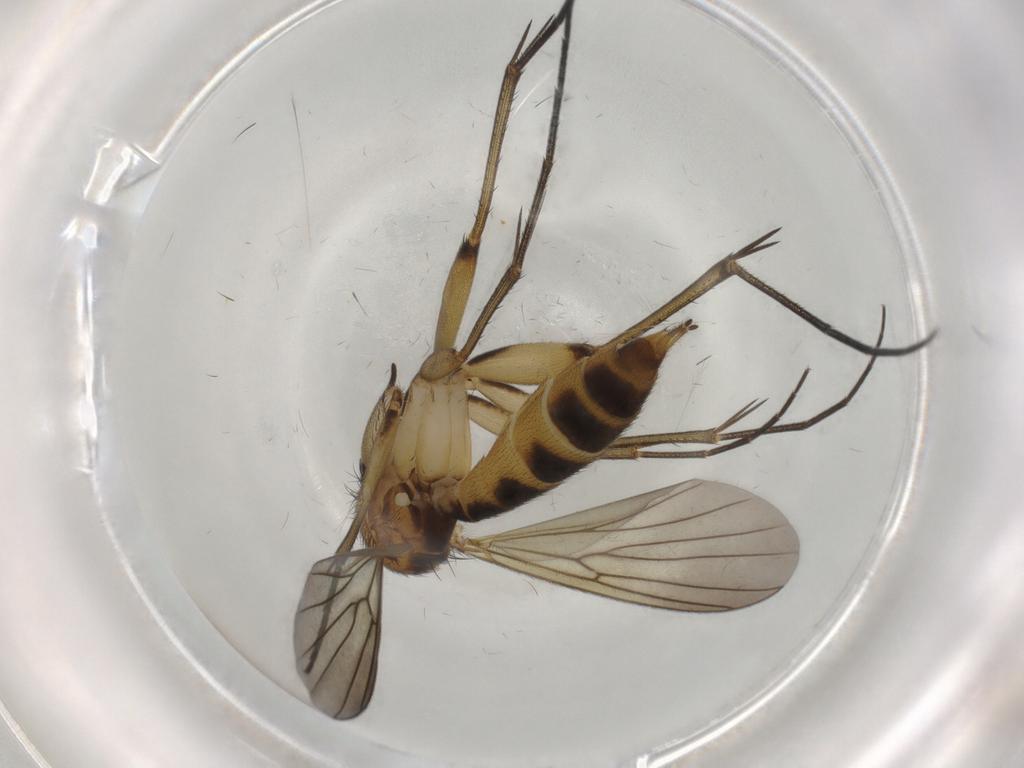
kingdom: Animalia
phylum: Arthropoda
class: Insecta
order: Diptera
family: Mycetophilidae
